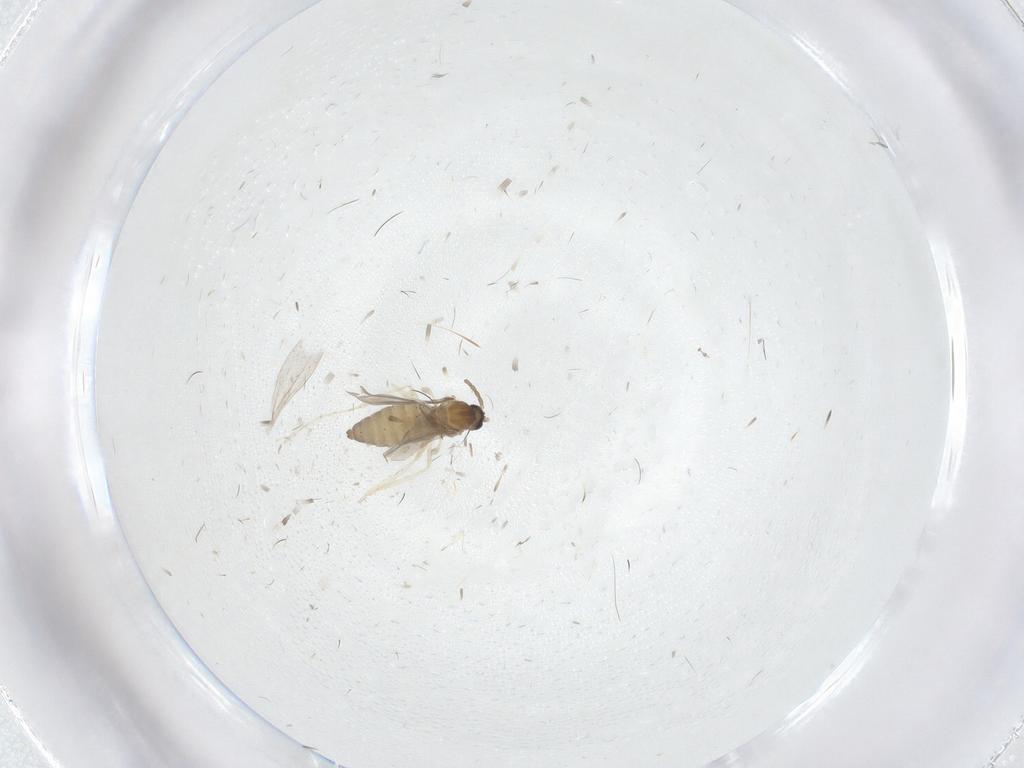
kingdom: Animalia
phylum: Arthropoda
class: Insecta
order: Diptera
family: Cecidomyiidae
